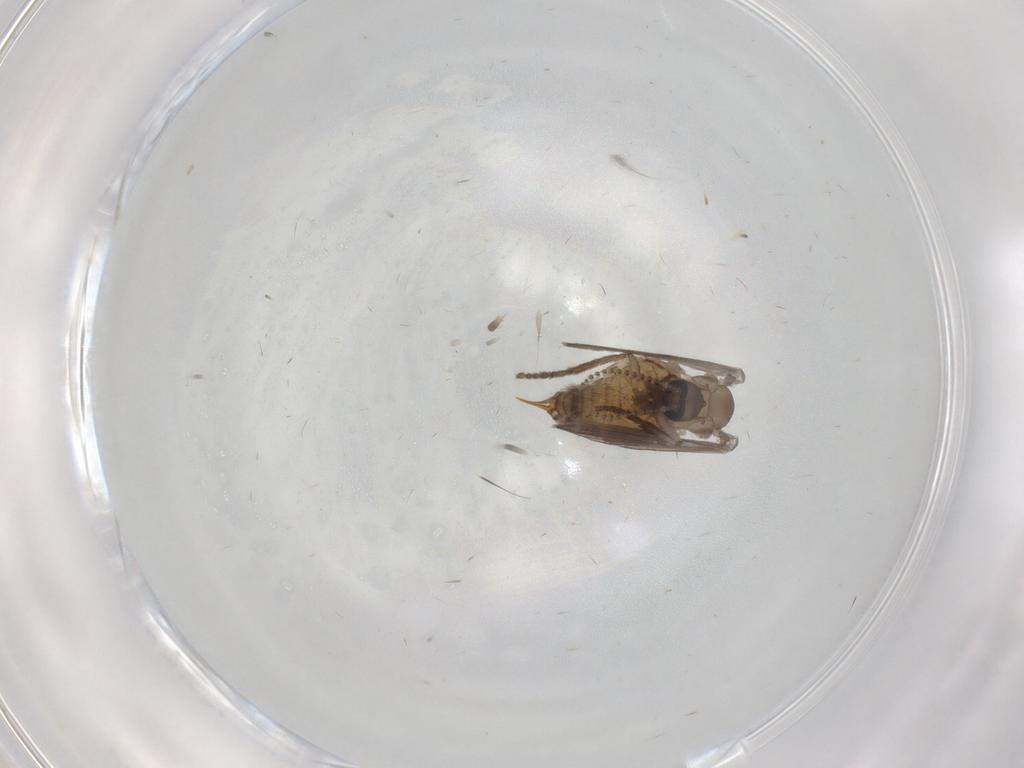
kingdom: Animalia
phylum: Arthropoda
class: Insecta
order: Diptera
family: Psychodidae
